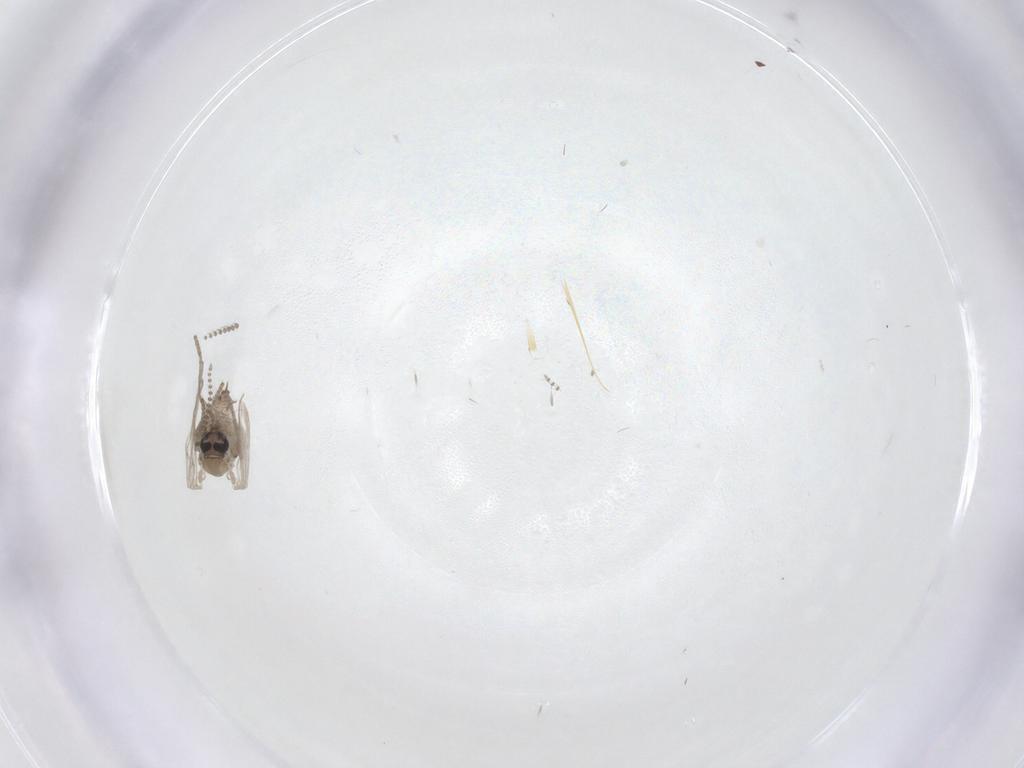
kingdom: Animalia
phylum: Arthropoda
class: Insecta
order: Diptera
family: Psychodidae
